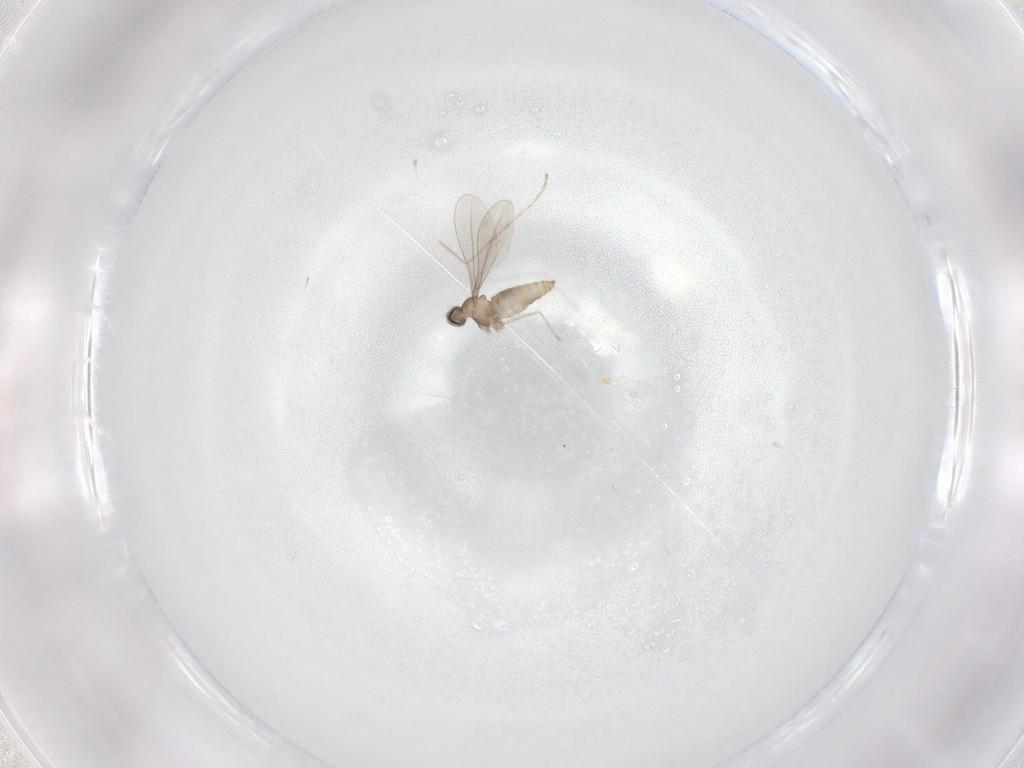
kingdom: Animalia
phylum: Arthropoda
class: Insecta
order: Diptera
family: Cecidomyiidae
